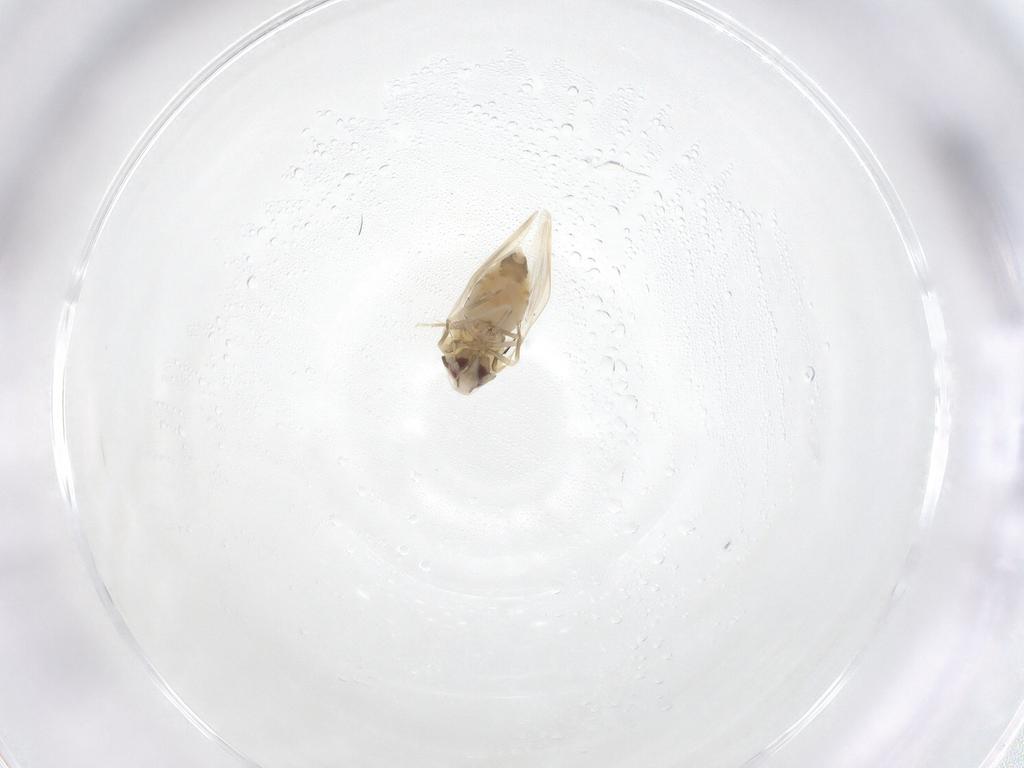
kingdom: Animalia
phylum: Arthropoda
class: Insecta
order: Hemiptera
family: Aleyrodidae
